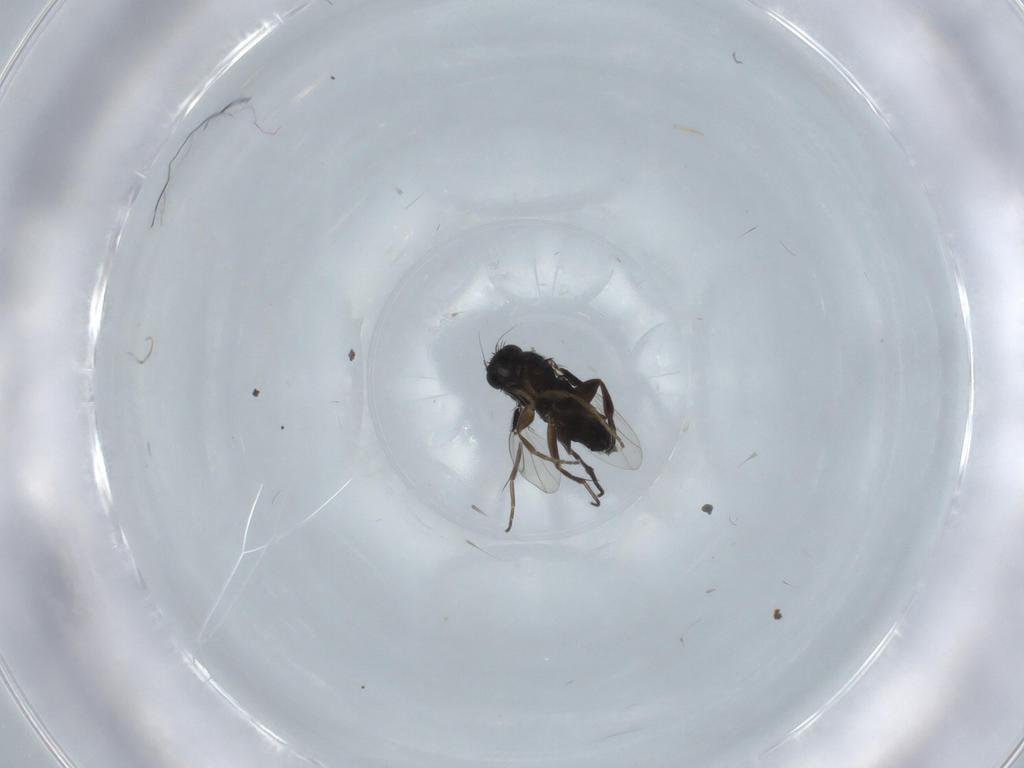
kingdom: Animalia
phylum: Arthropoda
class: Insecta
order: Diptera
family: Phoridae
